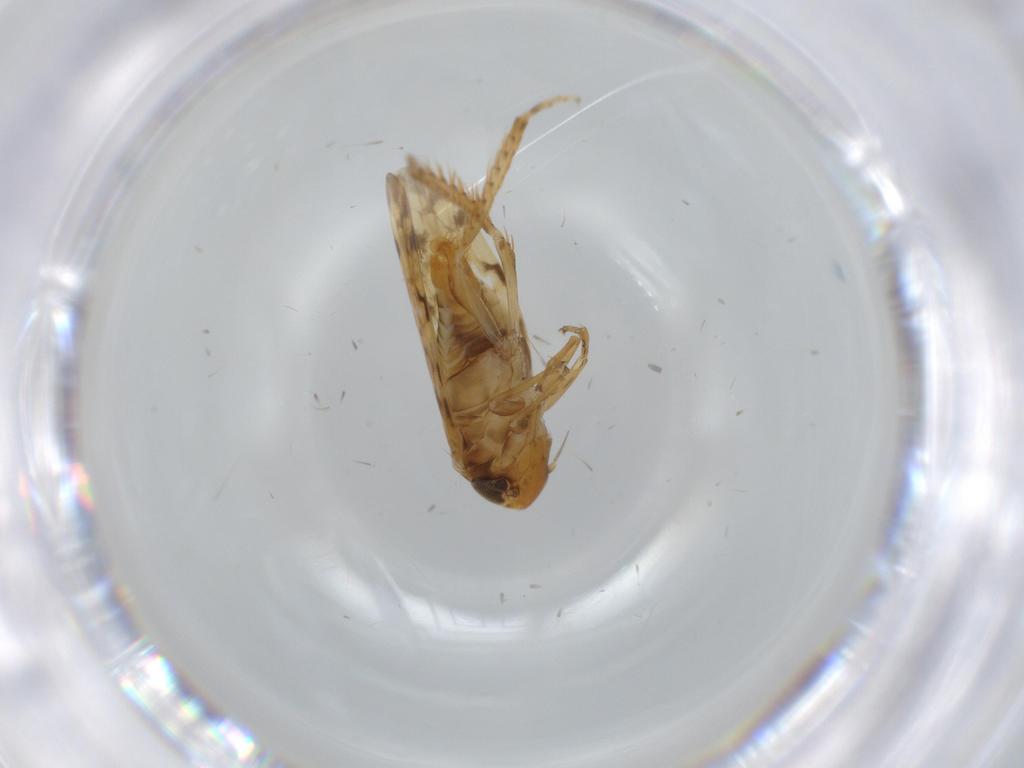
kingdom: Animalia
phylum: Arthropoda
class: Insecta
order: Hemiptera
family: Cicadellidae
